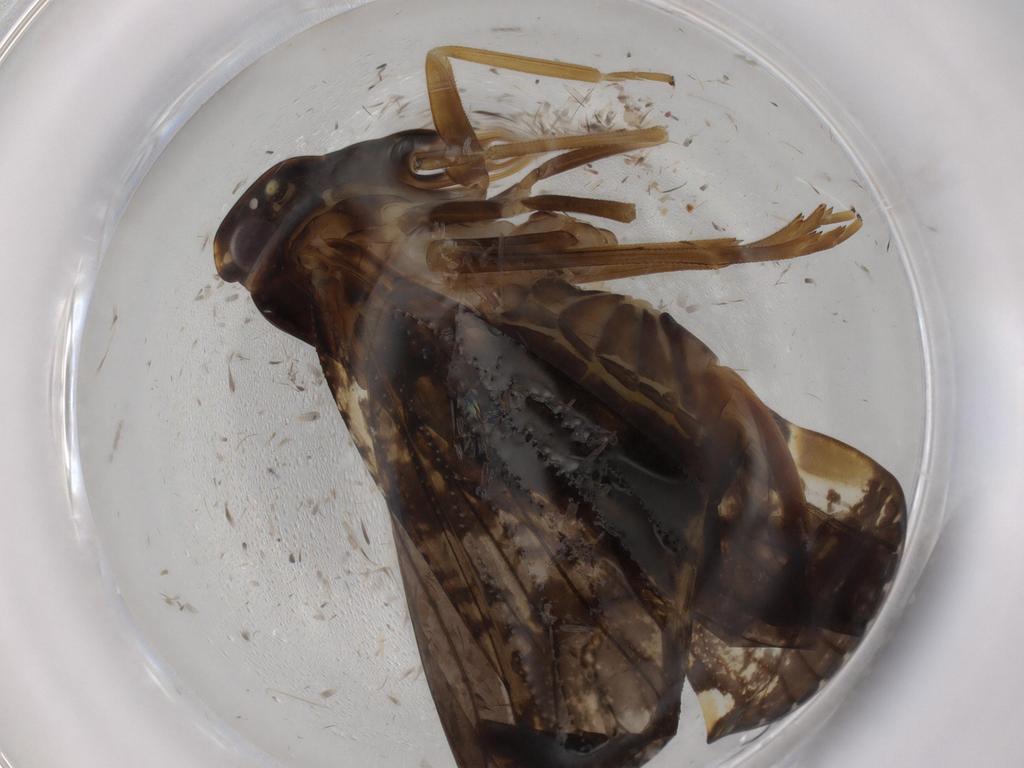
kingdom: Animalia
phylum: Arthropoda
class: Insecta
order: Hemiptera
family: Cixiidae
